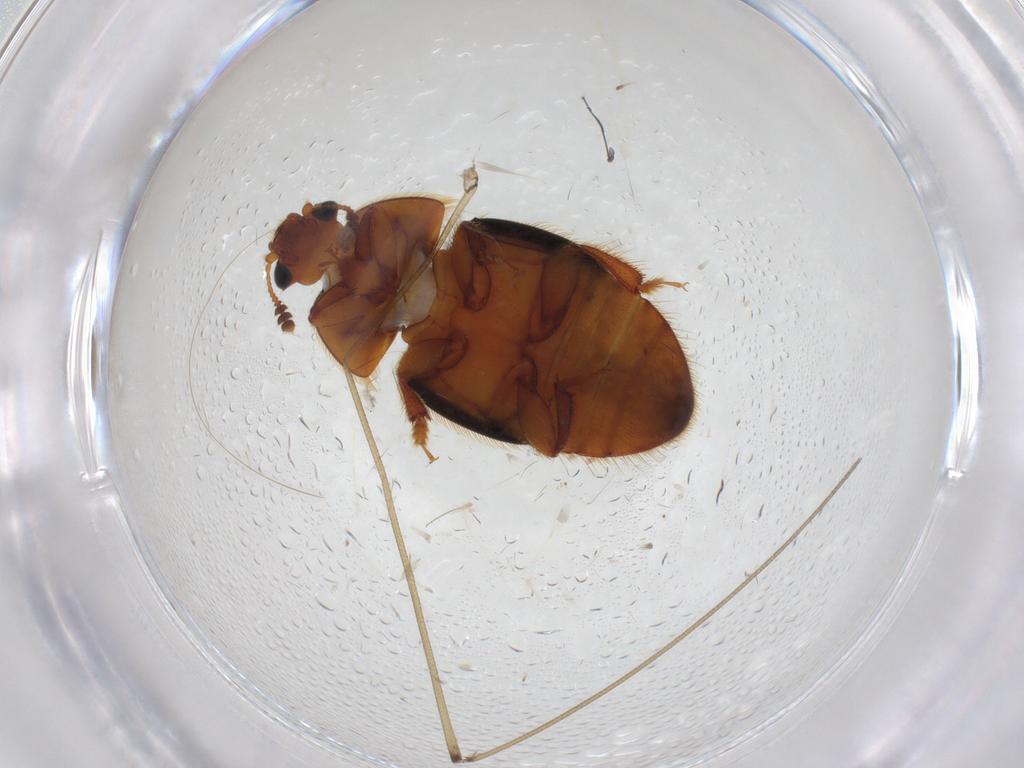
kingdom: Animalia
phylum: Arthropoda
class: Insecta
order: Coleoptera
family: Nitidulidae
